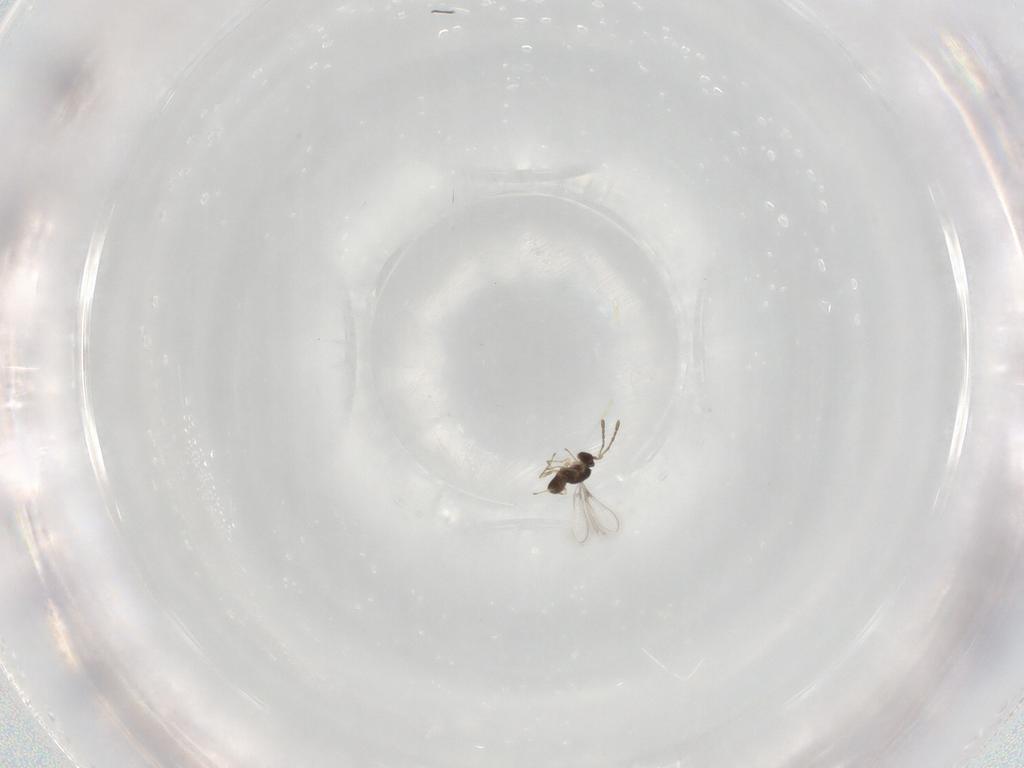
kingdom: Animalia
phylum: Arthropoda
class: Insecta
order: Hymenoptera
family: Mymaridae
